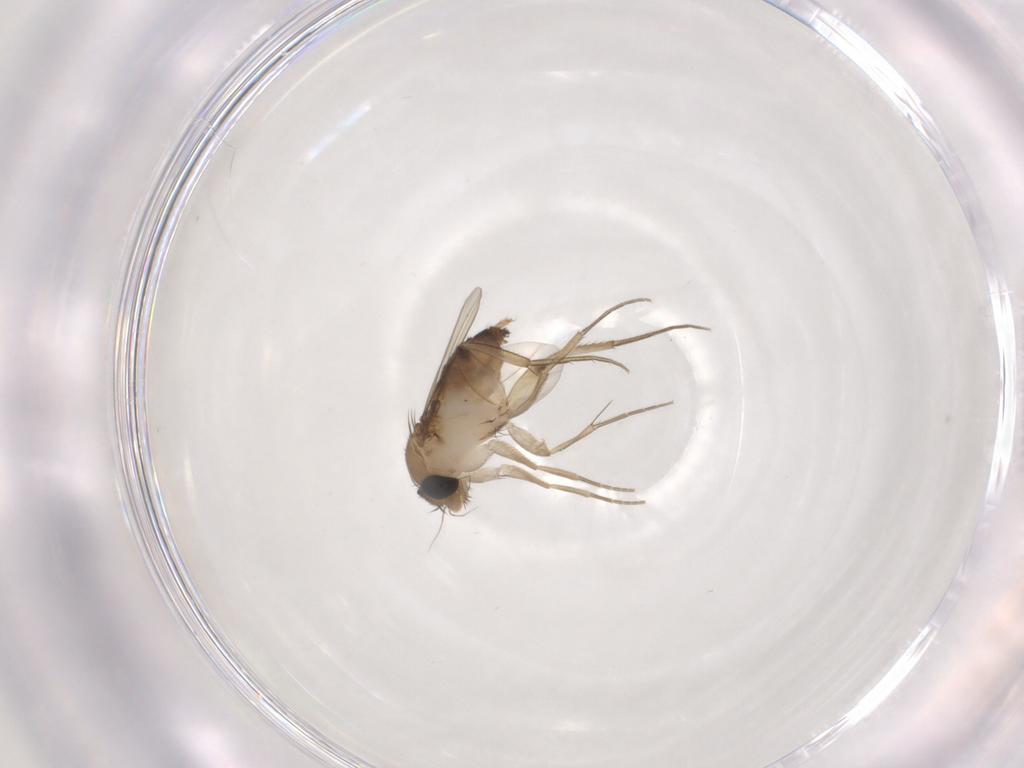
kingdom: Animalia
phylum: Arthropoda
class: Insecta
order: Diptera
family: Phoridae
